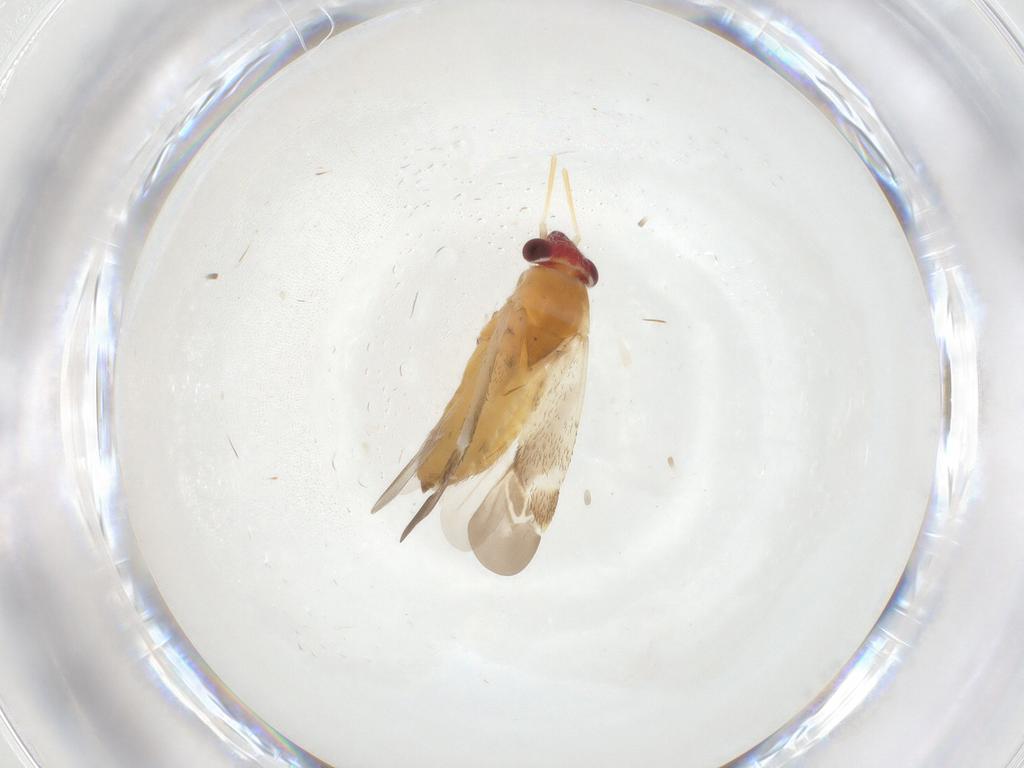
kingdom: Animalia
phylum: Arthropoda
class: Insecta
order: Hemiptera
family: Miridae
